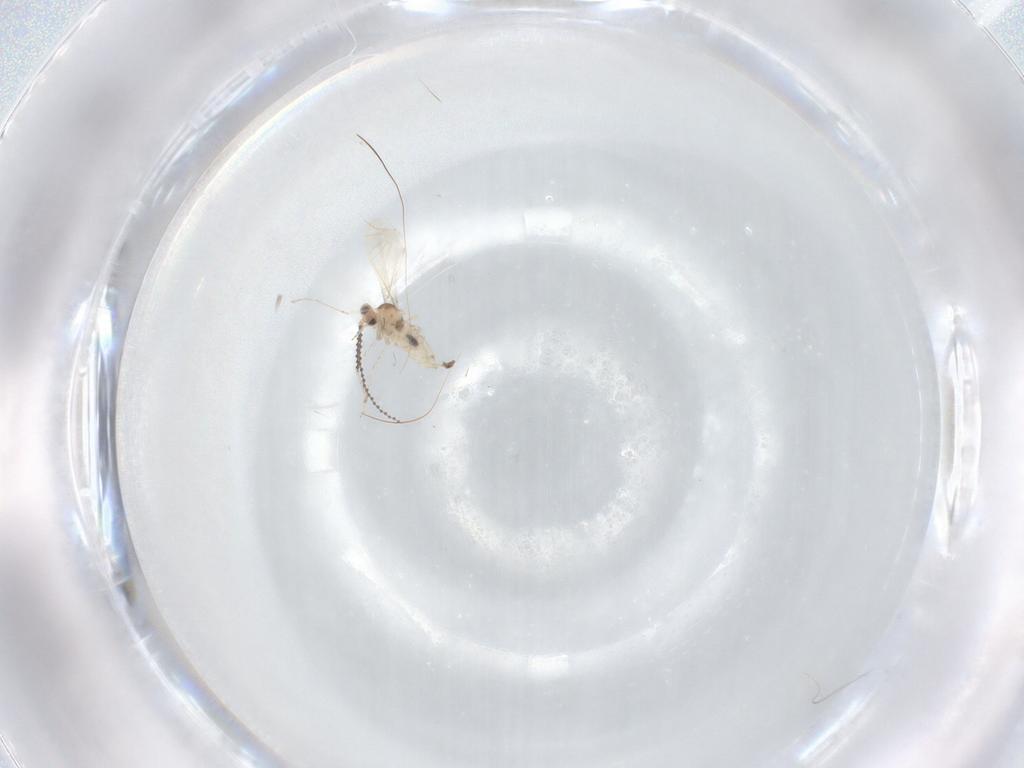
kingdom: Animalia
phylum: Arthropoda
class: Insecta
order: Diptera
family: Cecidomyiidae
